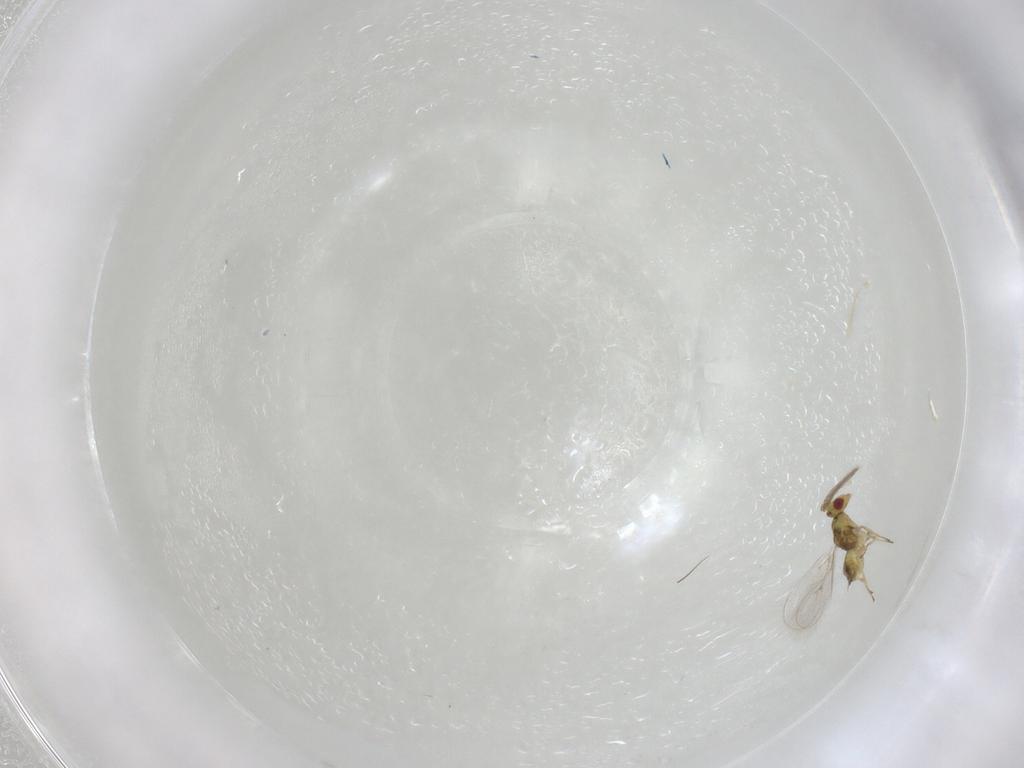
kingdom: Animalia
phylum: Arthropoda
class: Insecta
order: Hymenoptera
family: Eulophidae
